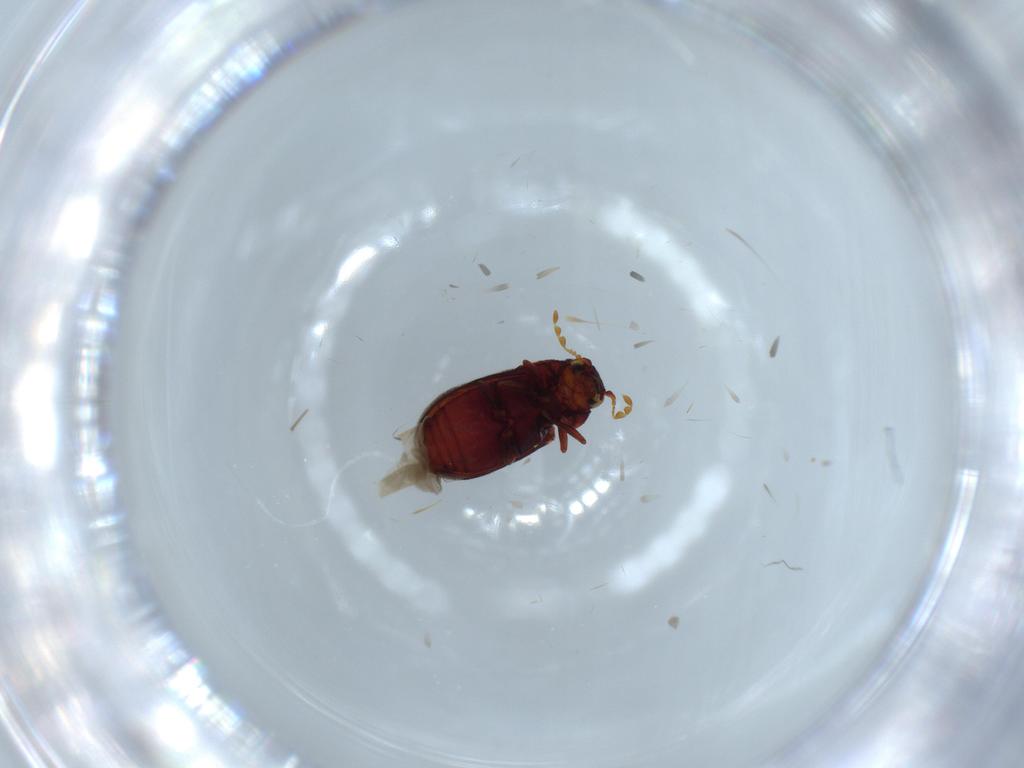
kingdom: Animalia
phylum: Arthropoda
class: Insecta
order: Coleoptera
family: Anobiidae
